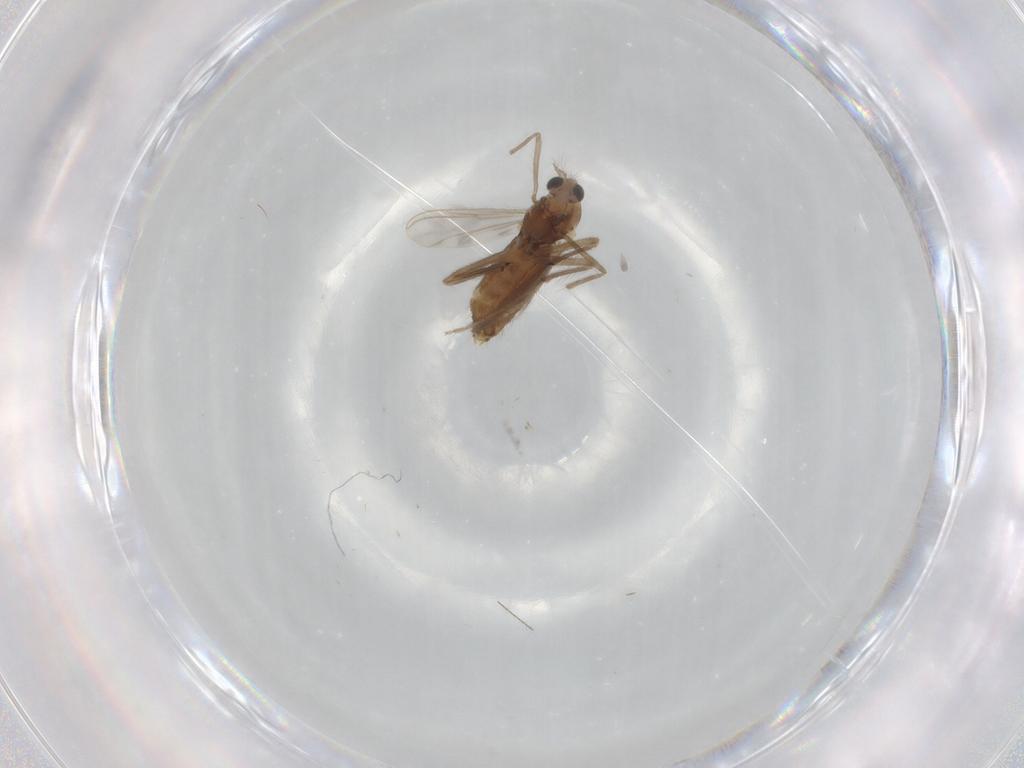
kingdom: Animalia
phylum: Arthropoda
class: Insecta
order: Diptera
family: Chironomidae
